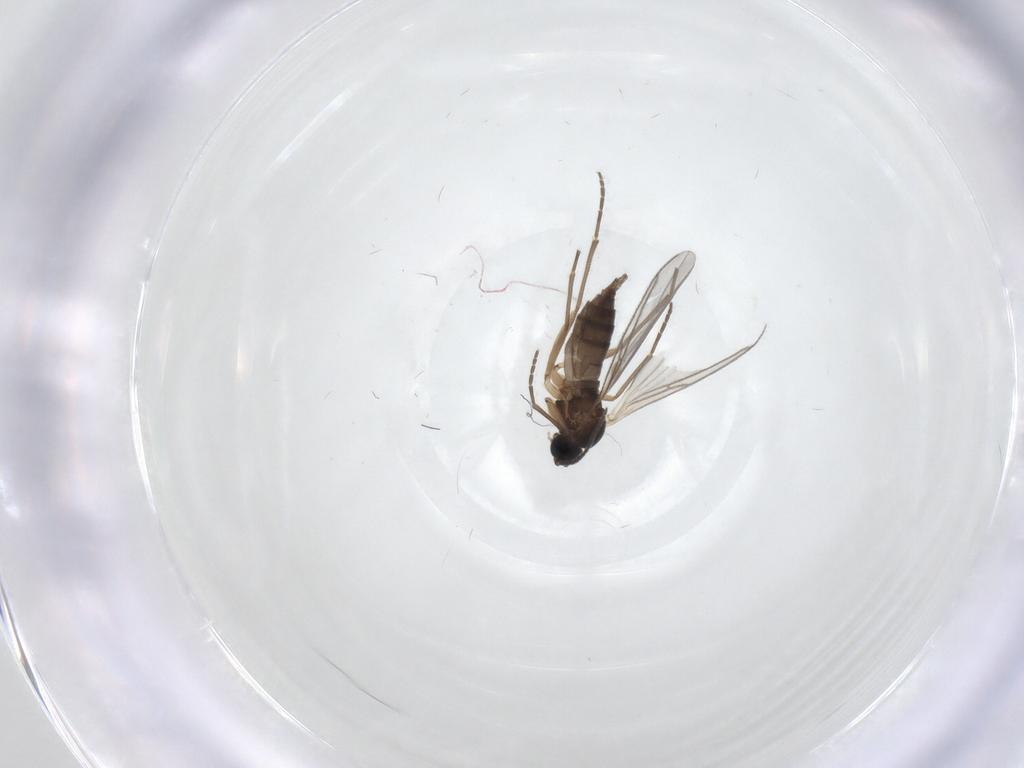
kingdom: Animalia
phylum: Arthropoda
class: Insecta
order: Diptera
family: Sciaridae
